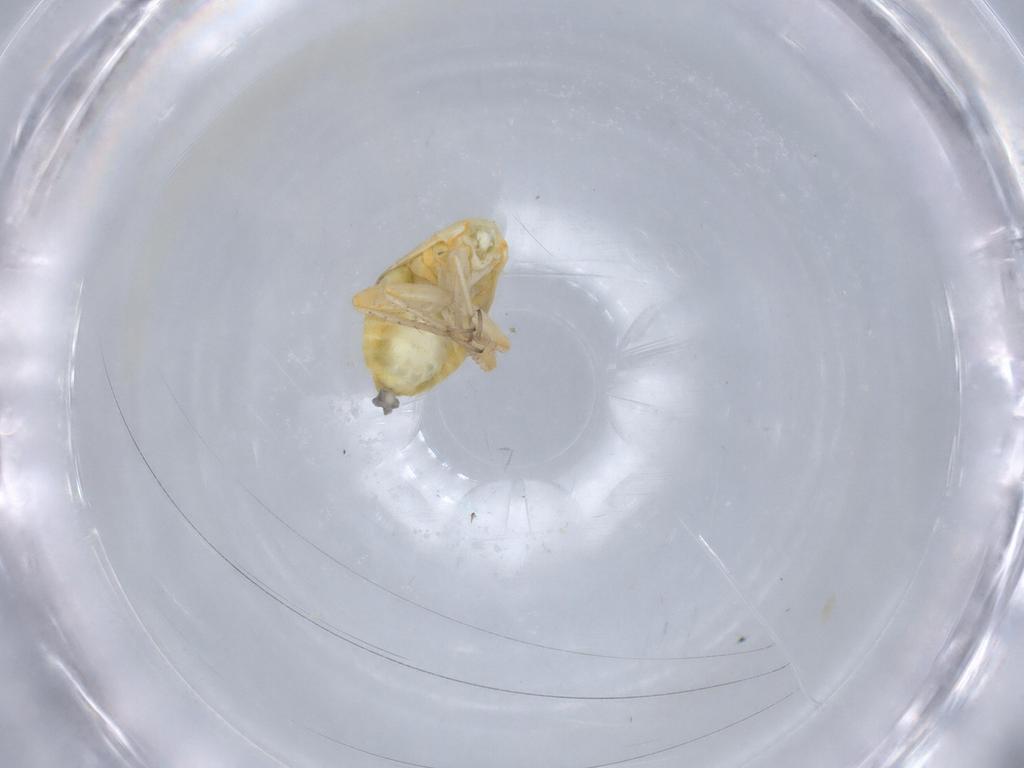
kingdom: Animalia
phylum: Arthropoda
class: Insecta
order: Hemiptera
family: Miridae
